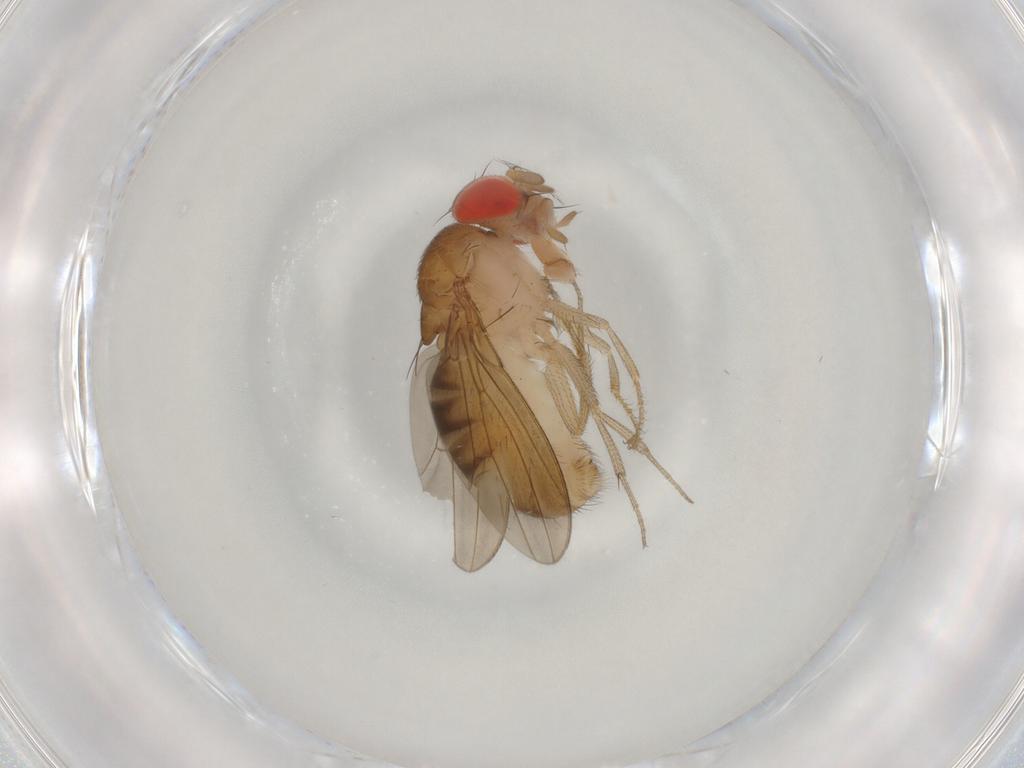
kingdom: Animalia
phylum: Arthropoda
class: Insecta
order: Diptera
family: Drosophilidae
